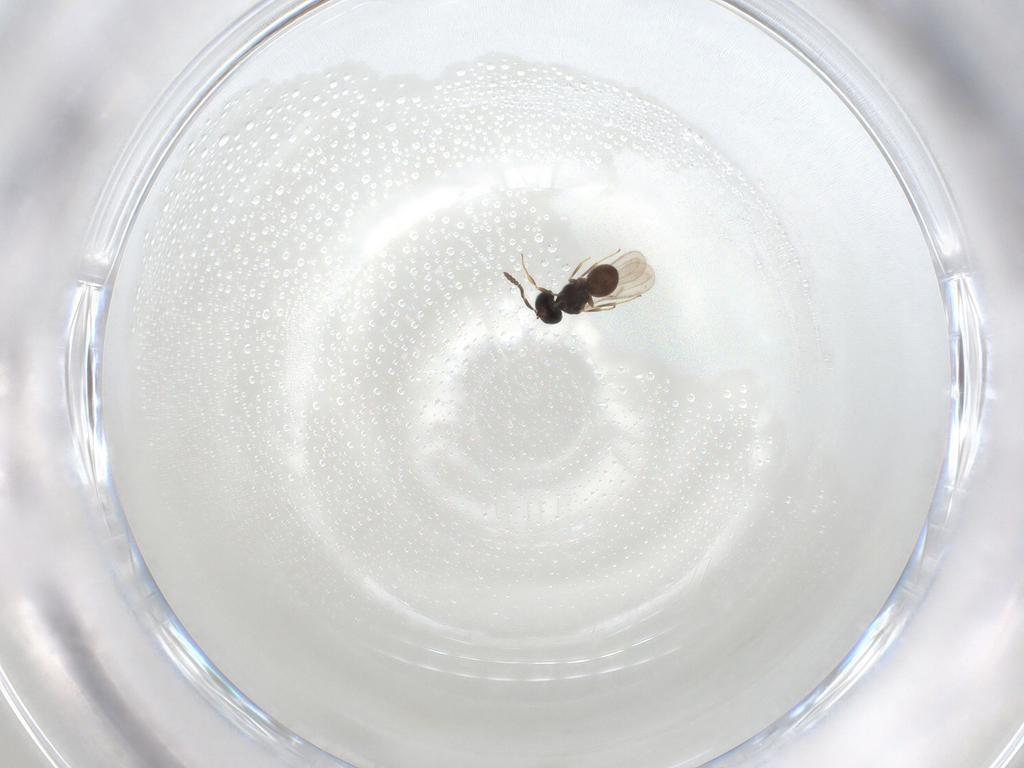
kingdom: Animalia
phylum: Arthropoda
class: Insecta
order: Hymenoptera
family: Scelionidae
